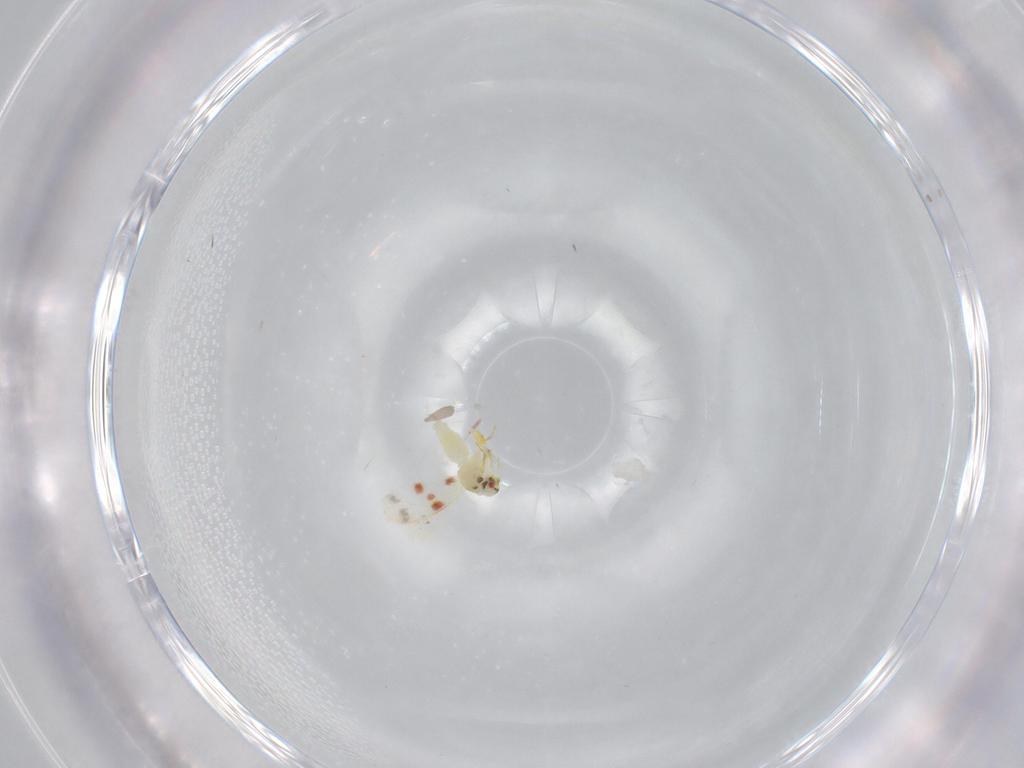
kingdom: Animalia
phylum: Arthropoda
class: Insecta
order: Hemiptera
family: Aleyrodidae
